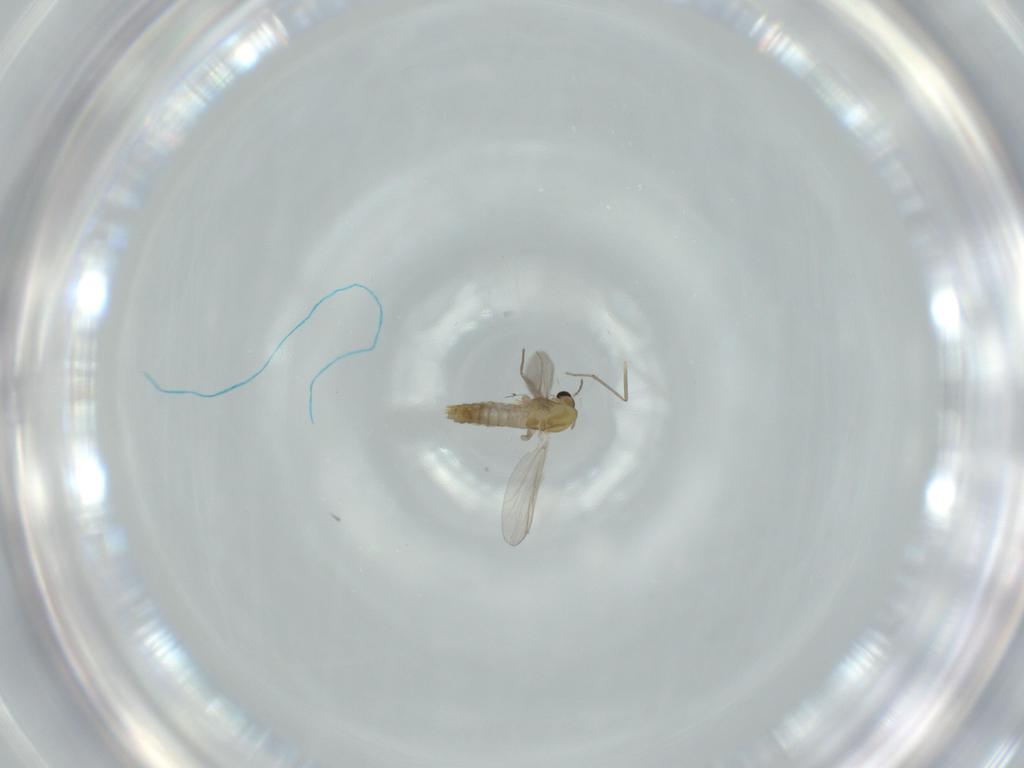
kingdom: Animalia
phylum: Arthropoda
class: Insecta
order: Diptera
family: Chironomidae
